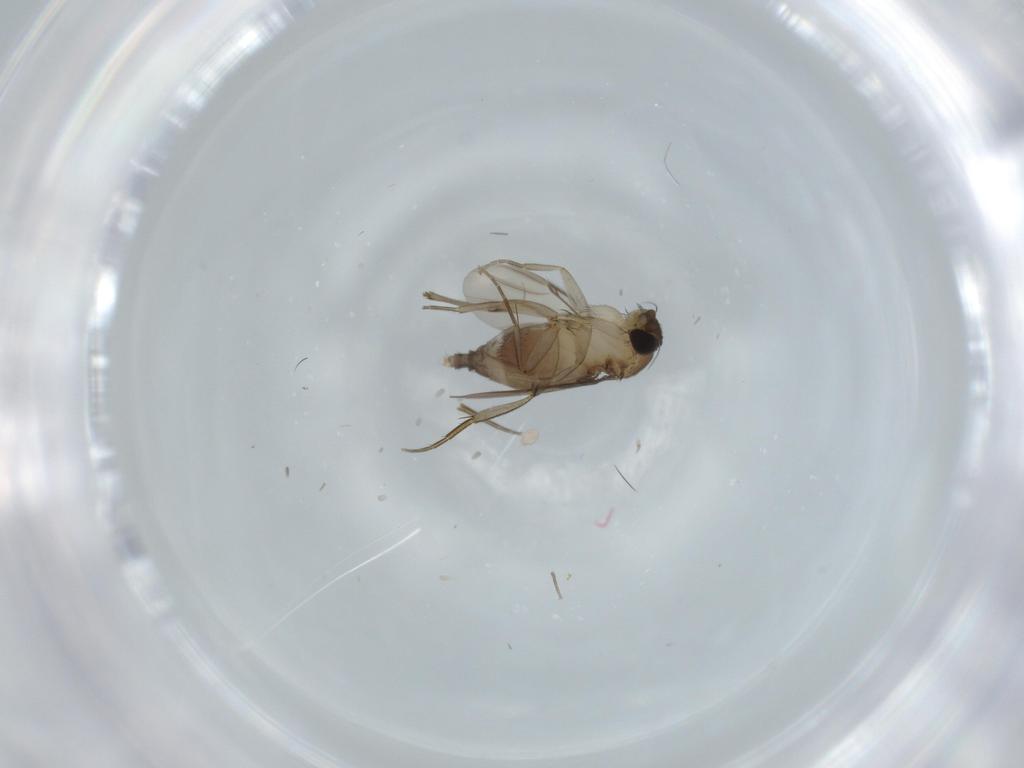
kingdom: Animalia
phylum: Arthropoda
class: Insecta
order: Diptera
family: Phoridae
